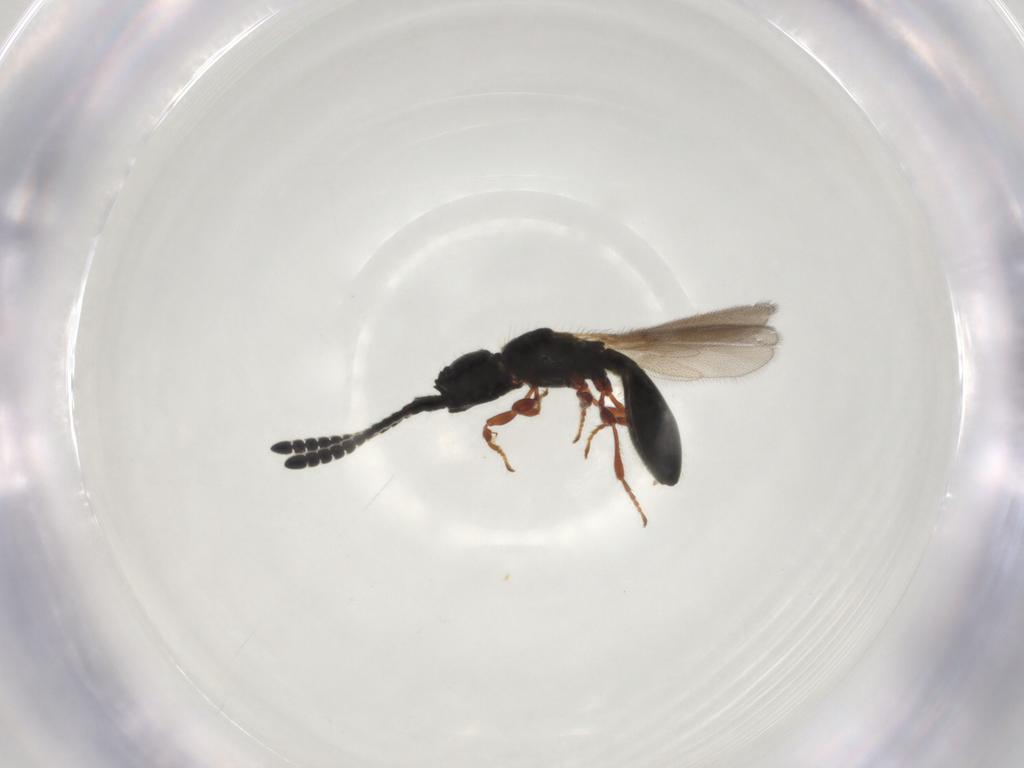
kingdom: Animalia
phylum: Arthropoda
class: Insecta
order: Hymenoptera
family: Diapriidae
